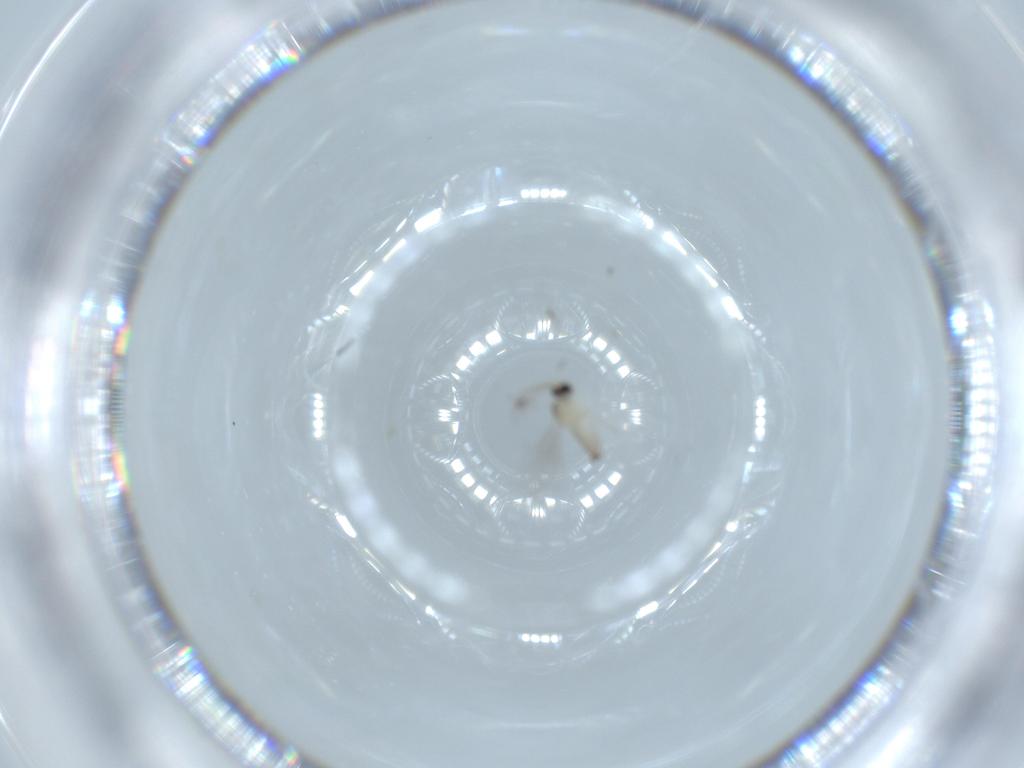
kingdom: Animalia
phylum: Arthropoda
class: Insecta
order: Diptera
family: Cecidomyiidae
